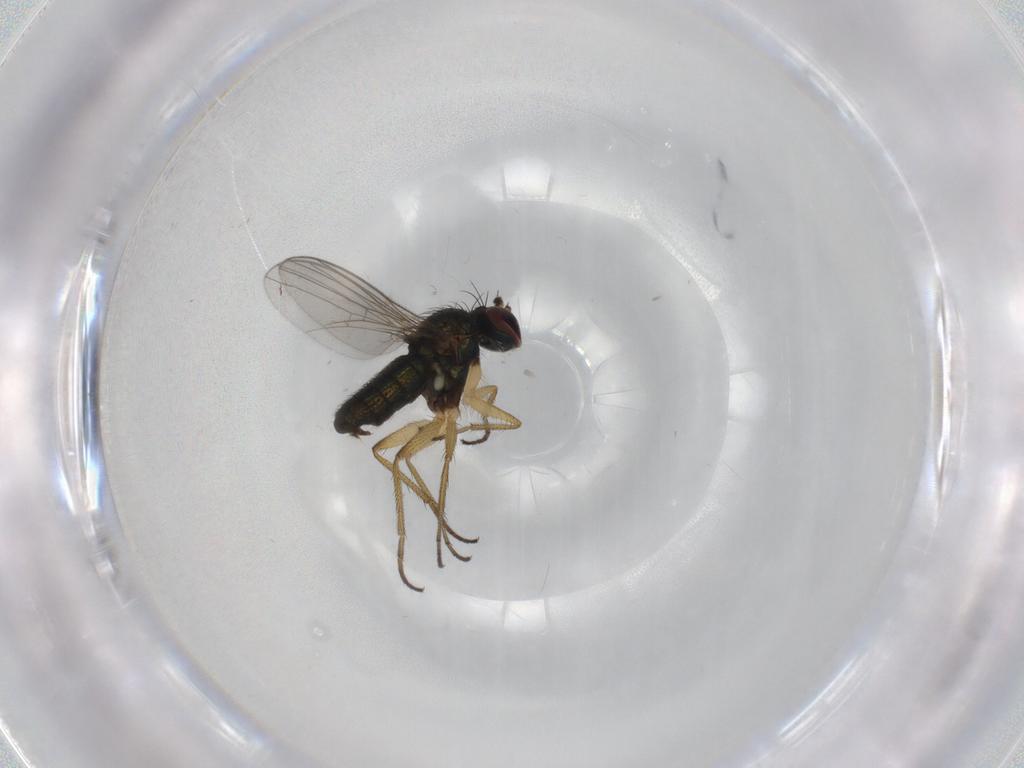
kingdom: Animalia
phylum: Arthropoda
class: Insecta
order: Diptera
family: Dolichopodidae
